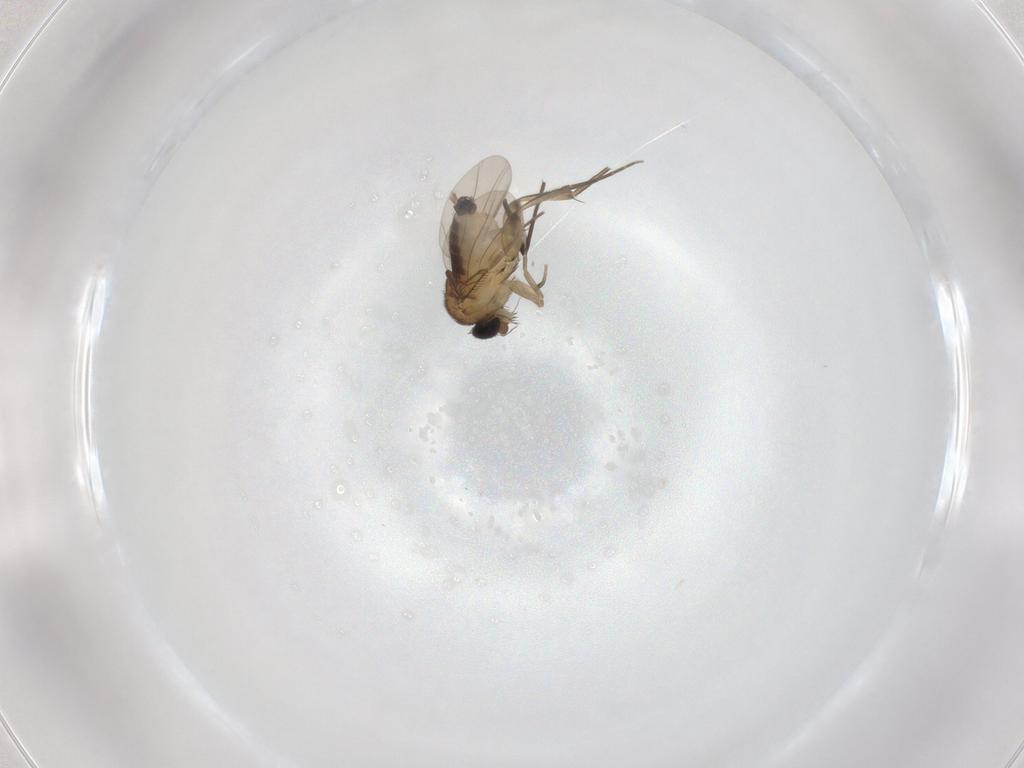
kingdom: Animalia
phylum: Arthropoda
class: Insecta
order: Diptera
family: Phoridae
